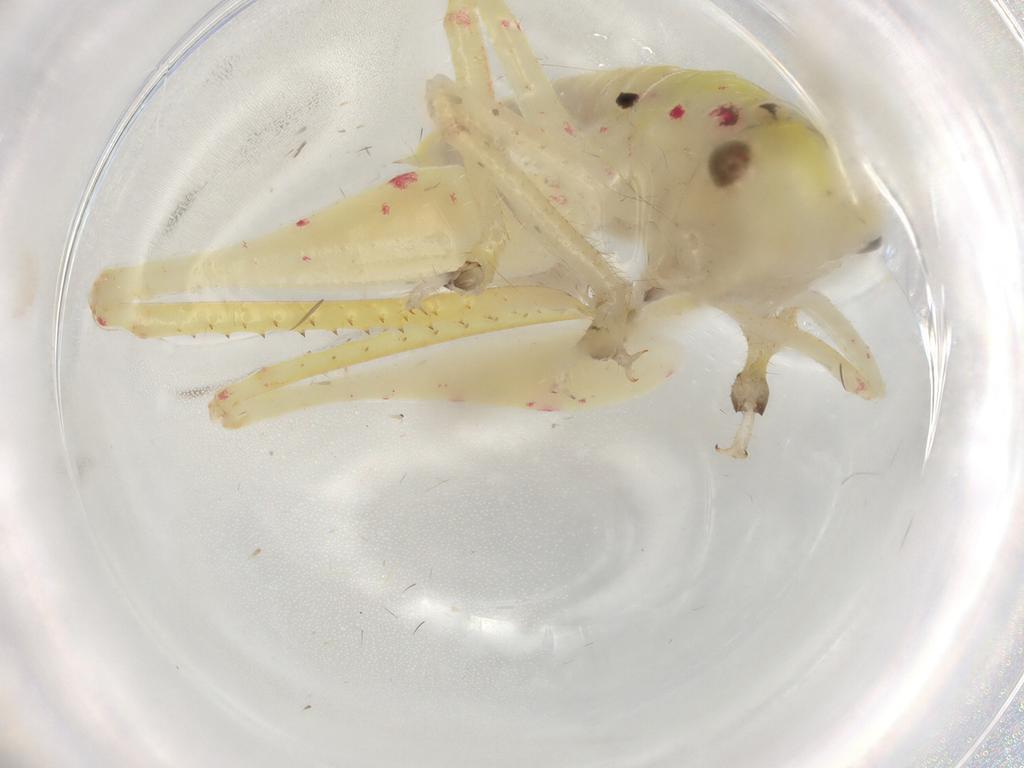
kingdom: Animalia
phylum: Arthropoda
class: Insecta
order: Orthoptera
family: Tettigoniidae
